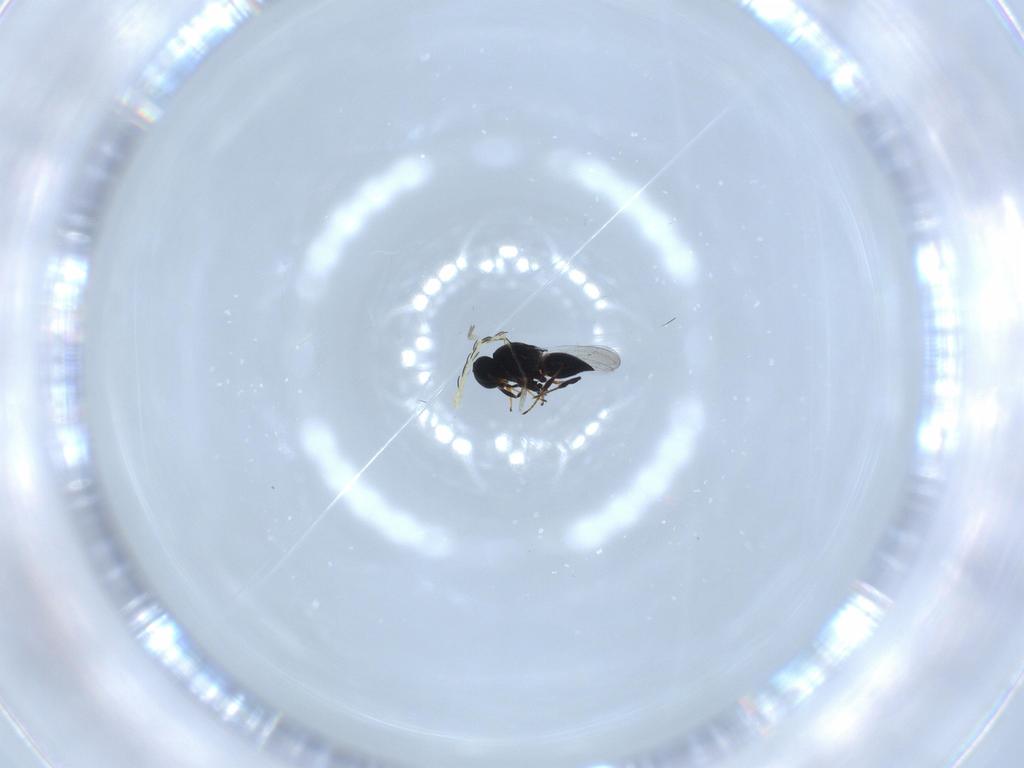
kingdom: Animalia
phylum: Arthropoda
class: Insecta
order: Hymenoptera
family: Platygastridae
